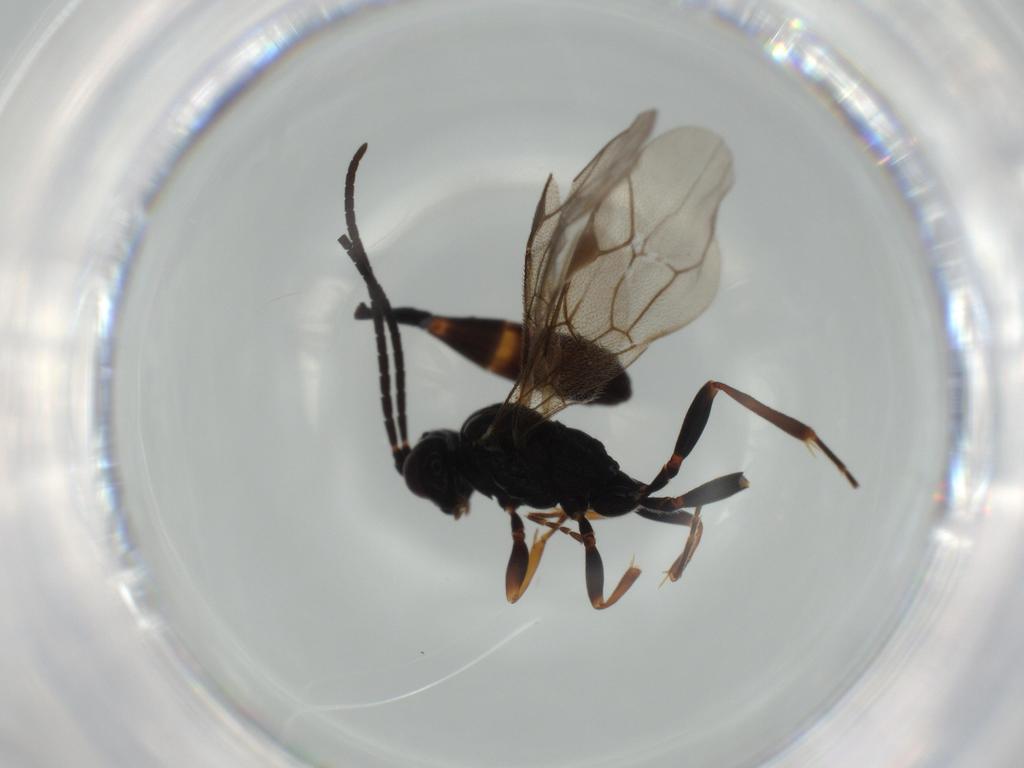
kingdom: Animalia
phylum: Arthropoda
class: Insecta
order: Hymenoptera
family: Ichneumonidae
